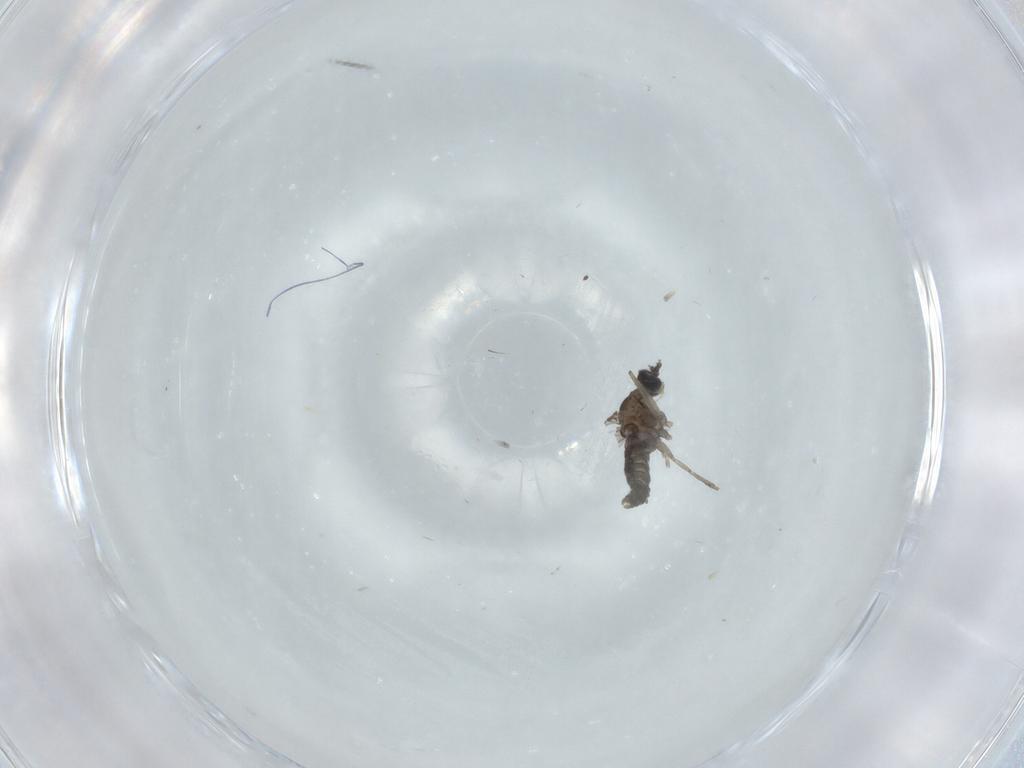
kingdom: Animalia
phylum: Arthropoda
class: Insecta
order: Diptera
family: Cecidomyiidae
